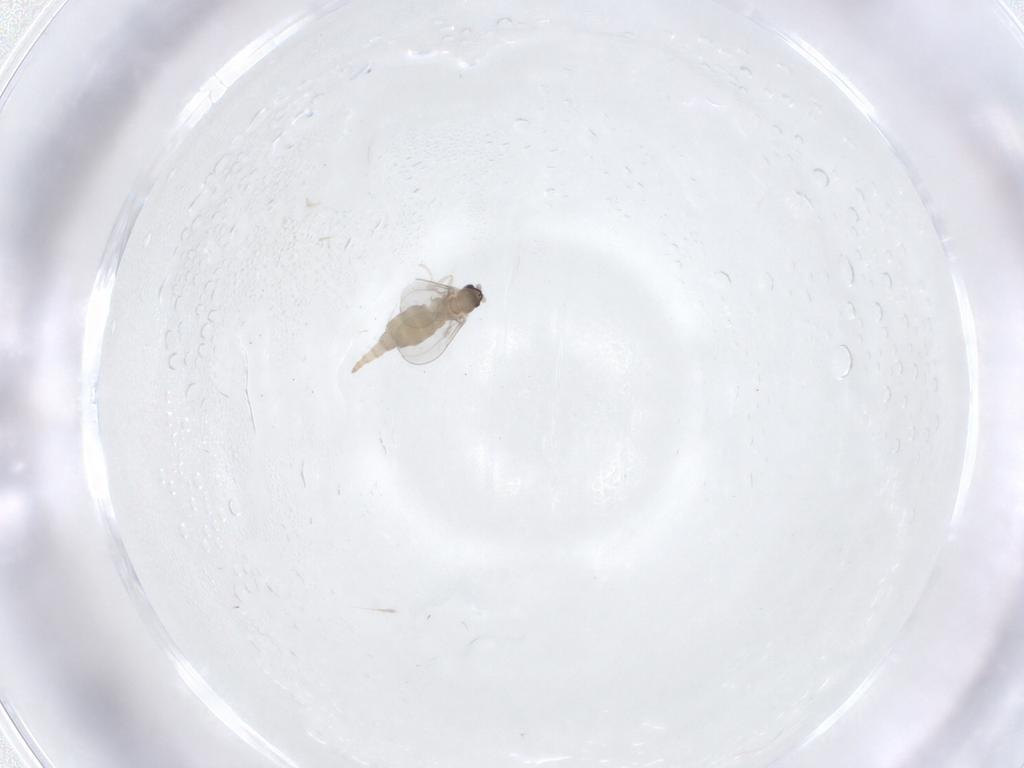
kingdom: Animalia
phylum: Arthropoda
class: Insecta
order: Diptera
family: Cecidomyiidae
